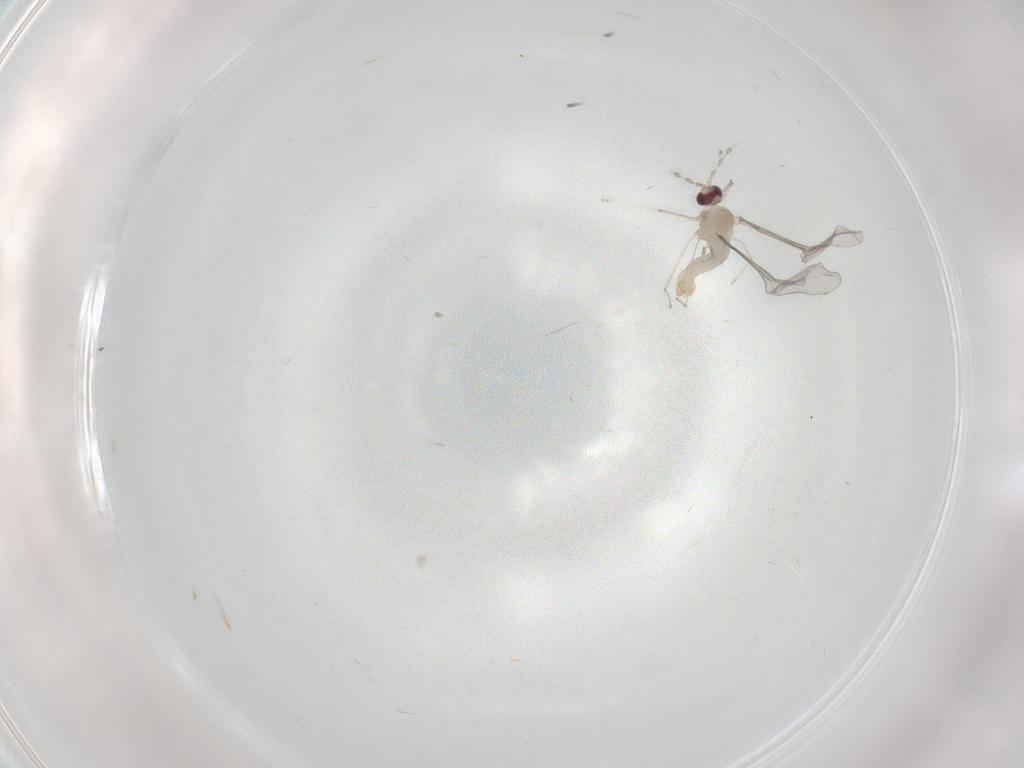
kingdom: Animalia
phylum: Arthropoda
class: Insecta
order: Diptera
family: Cecidomyiidae
